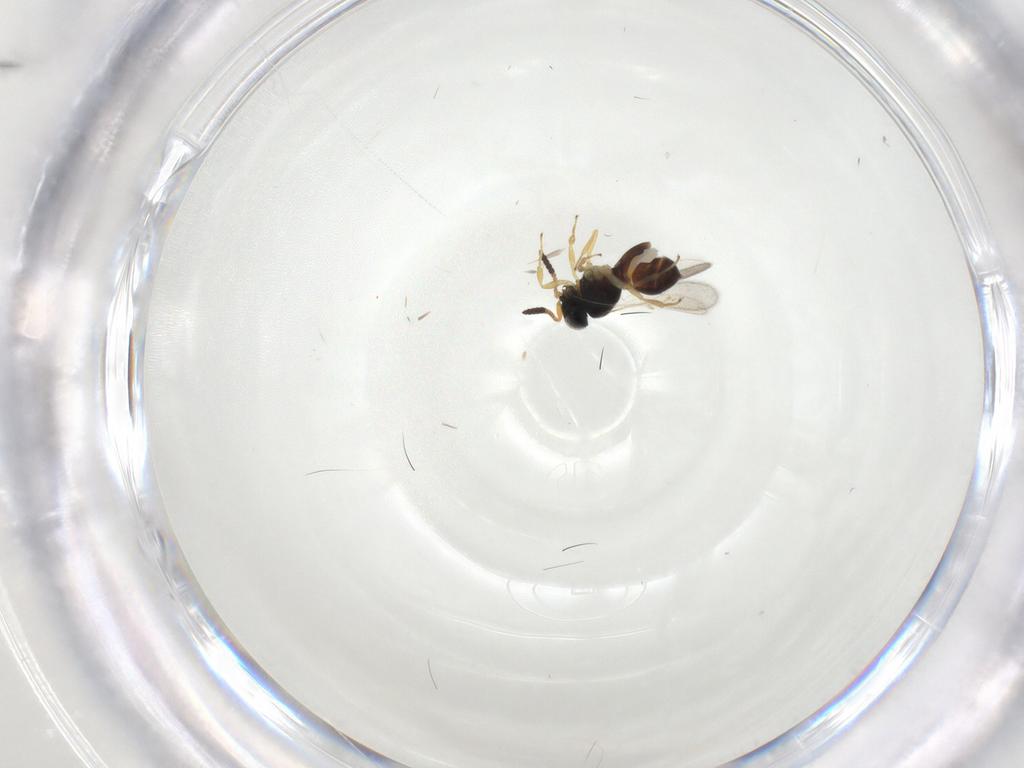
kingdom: Animalia
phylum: Arthropoda
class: Insecta
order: Hymenoptera
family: Scelionidae
